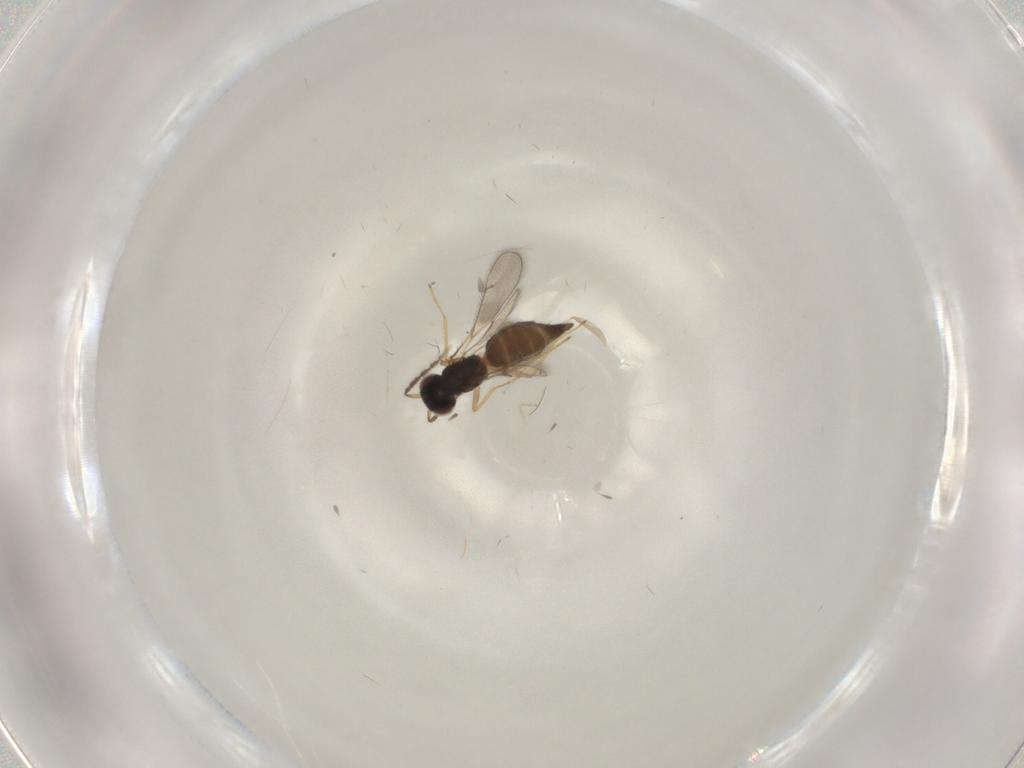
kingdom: Animalia
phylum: Arthropoda
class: Insecta
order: Hymenoptera
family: Eulophidae
